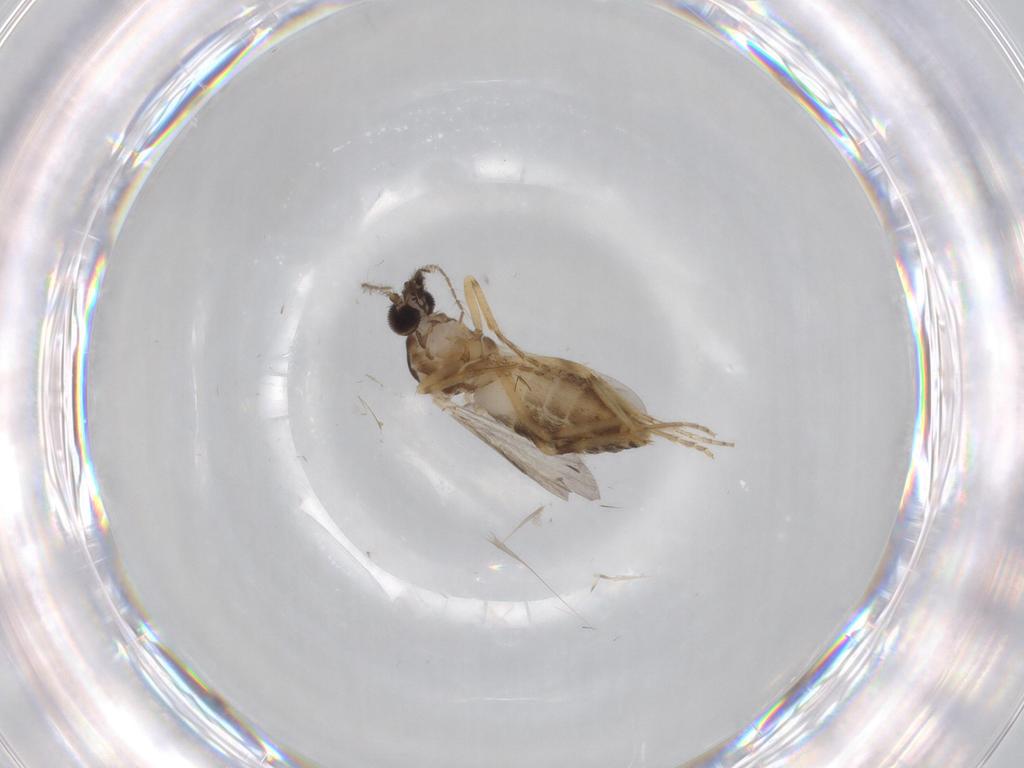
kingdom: Animalia
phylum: Arthropoda
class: Insecta
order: Diptera
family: Ceratopogonidae
